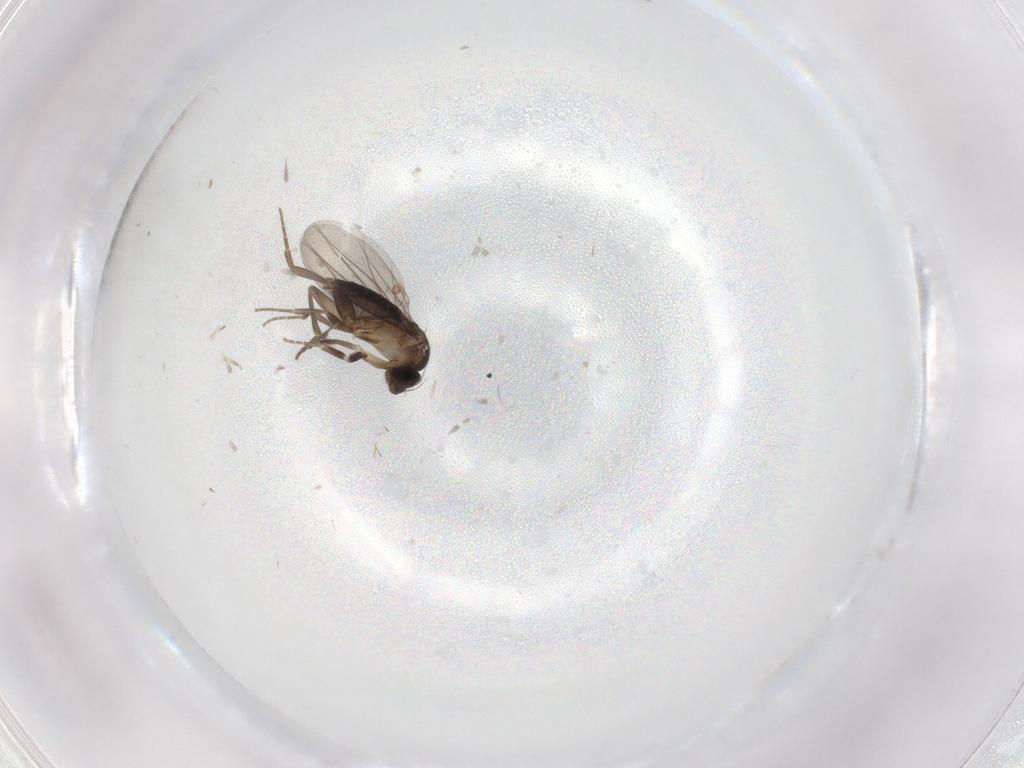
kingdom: Animalia
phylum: Arthropoda
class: Insecta
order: Diptera
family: Phoridae
